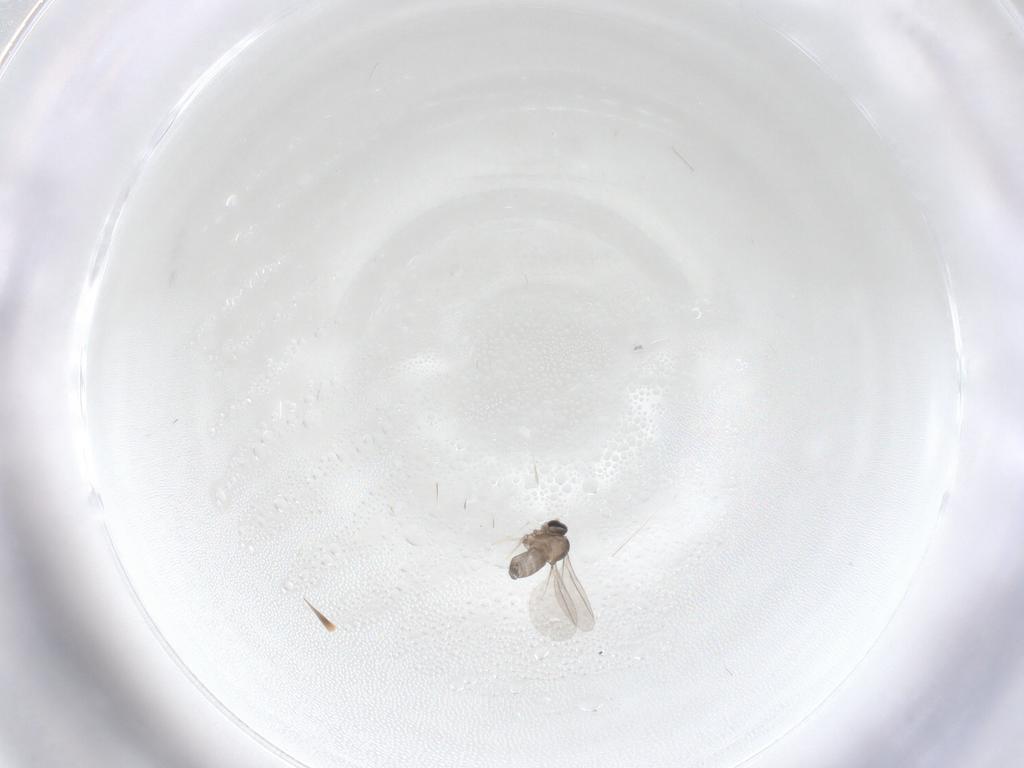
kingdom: Animalia
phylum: Arthropoda
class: Insecta
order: Diptera
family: Cecidomyiidae
